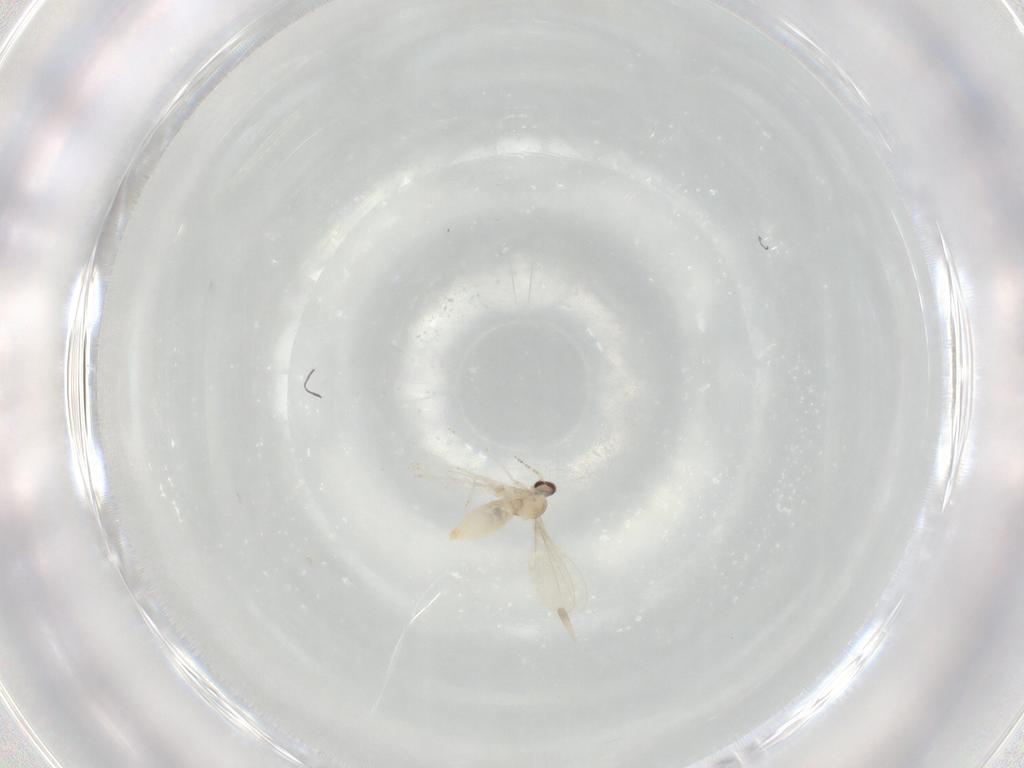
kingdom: Animalia
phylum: Arthropoda
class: Insecta
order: Diptera
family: Cecidomyiidae
